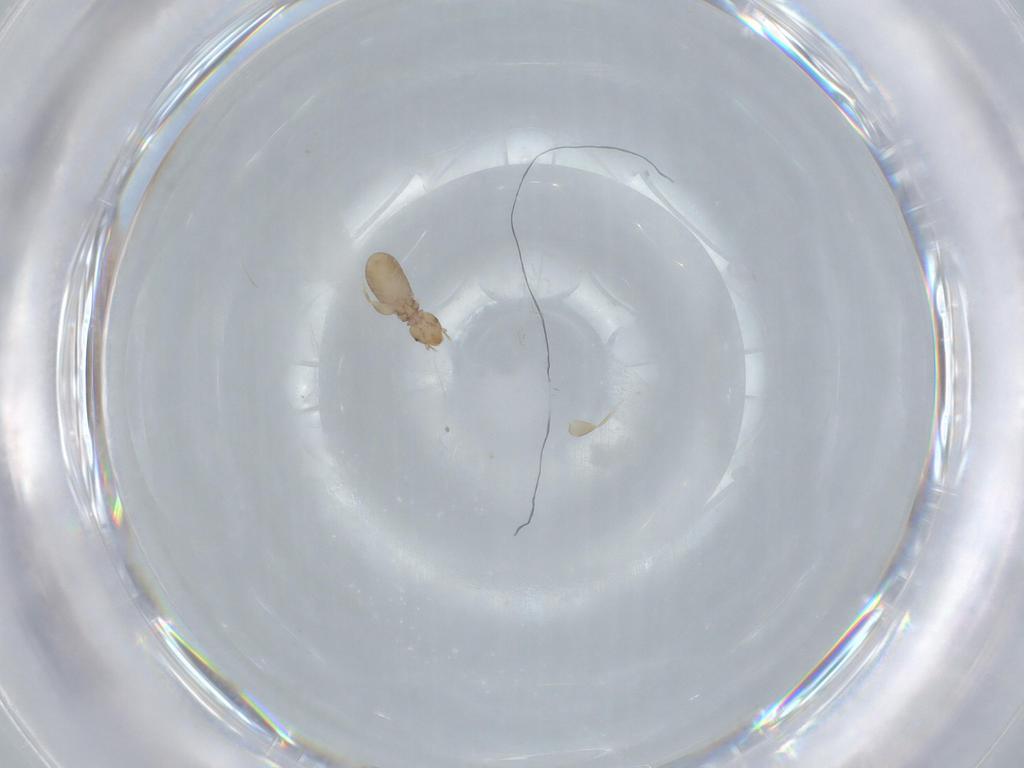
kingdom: Animalia
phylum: Arthropoda
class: Insecta
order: Psocodea
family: Liposcelididae
